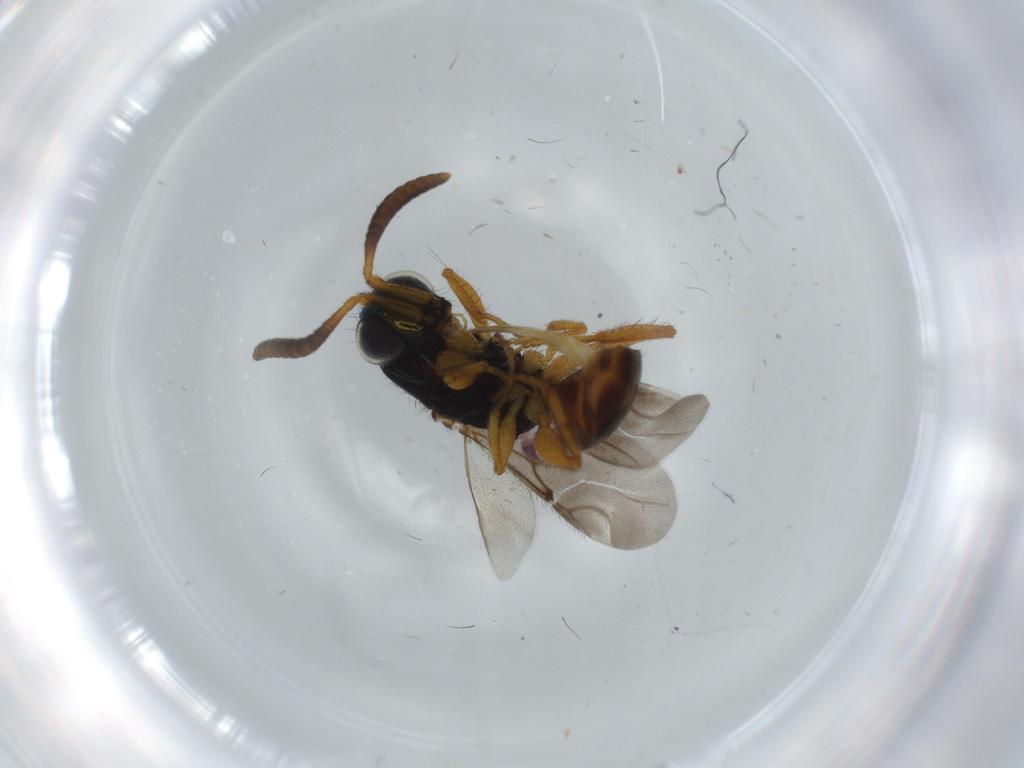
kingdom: Animalia
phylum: Arthropoda
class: Insecta
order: Hymenoptera
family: Chrysididae
